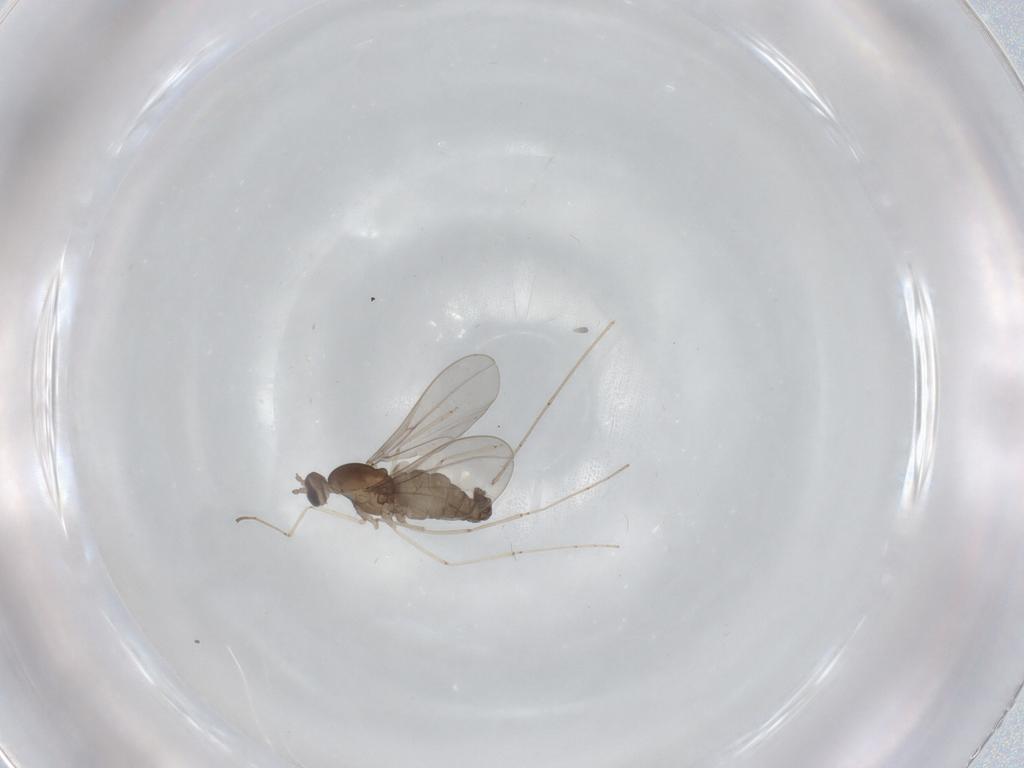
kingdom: Animalia
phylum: Arthropoda
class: Insecta
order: Diptera
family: Cecidomyiidae
